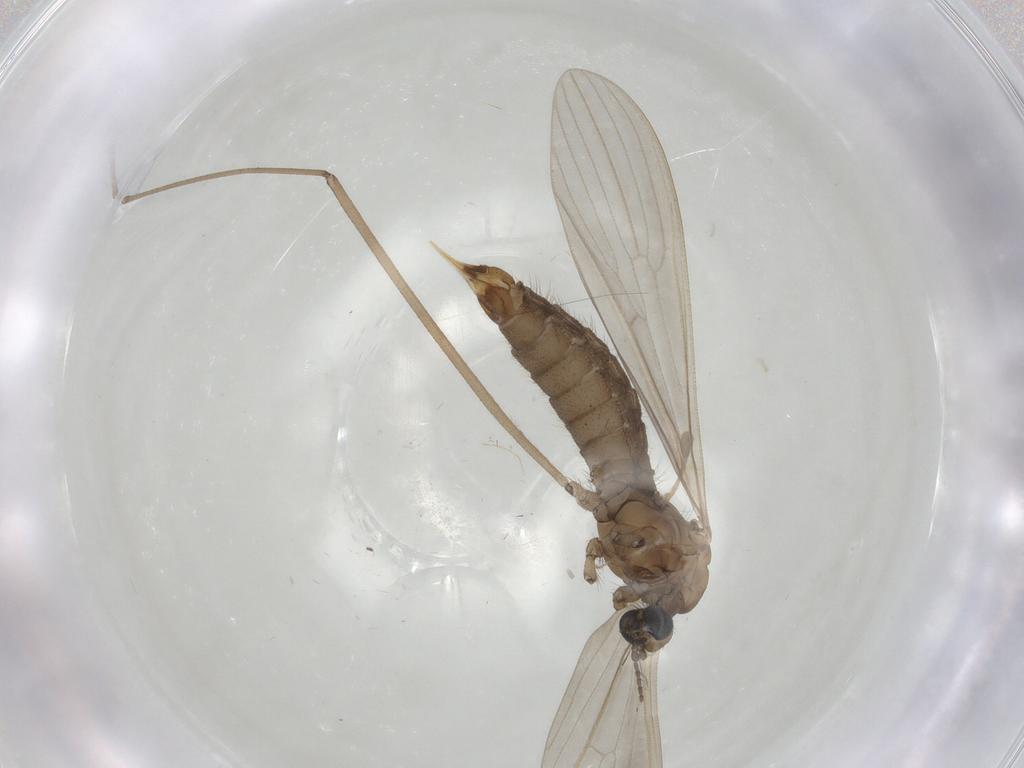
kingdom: Animalia
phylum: Arthropoda
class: Insecta
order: Diptera
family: Limoniidae
